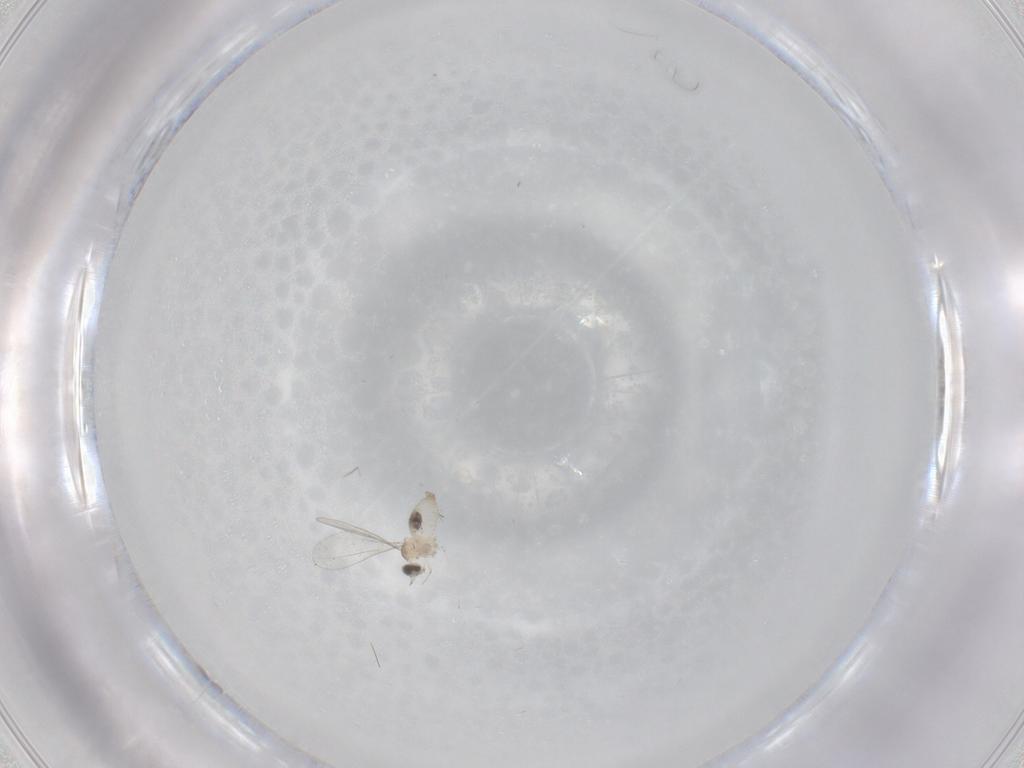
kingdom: Animalia
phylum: Arthropoda
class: Insecta
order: Diptera
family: Cecidomyiidae
